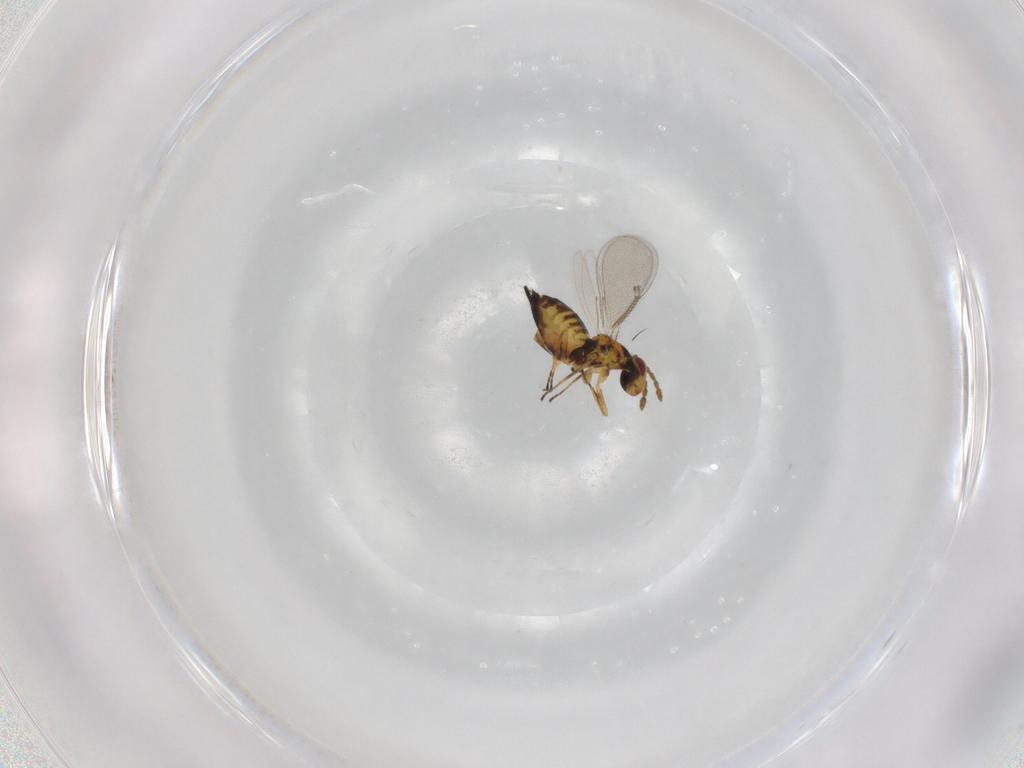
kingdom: Animalia
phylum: Arthropoda
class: Insecta
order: Hymenoptera
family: Eulophidae
